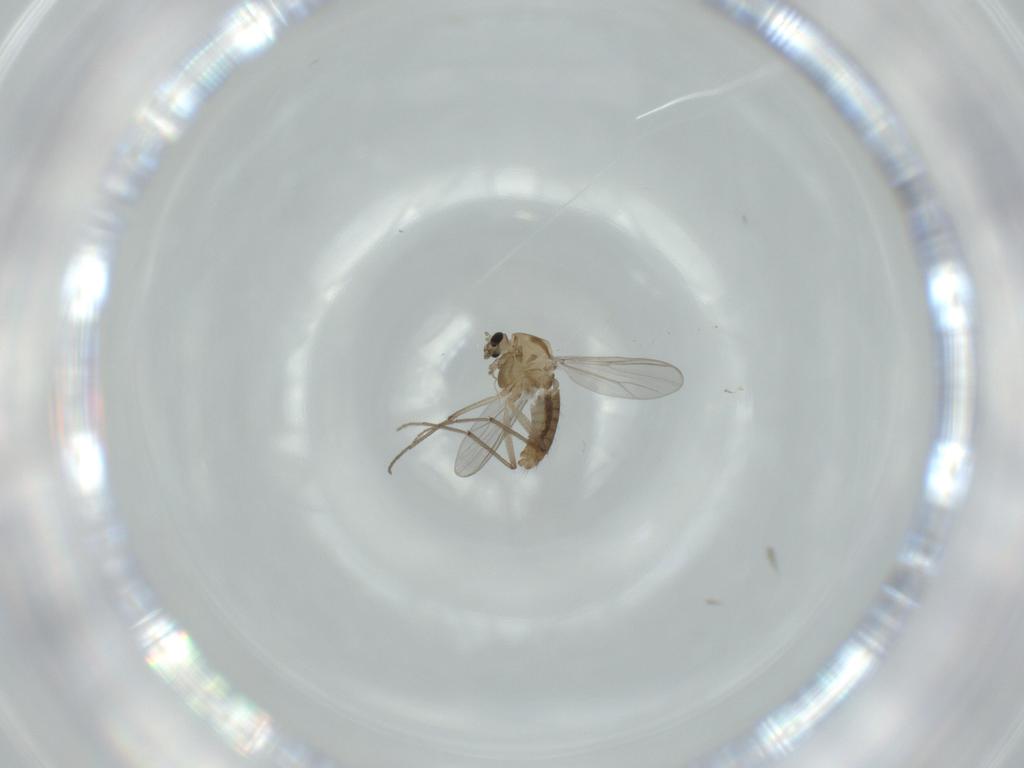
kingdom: Animalia
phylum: Arthropoda
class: Insecta
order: Diptera
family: Chironomidae
